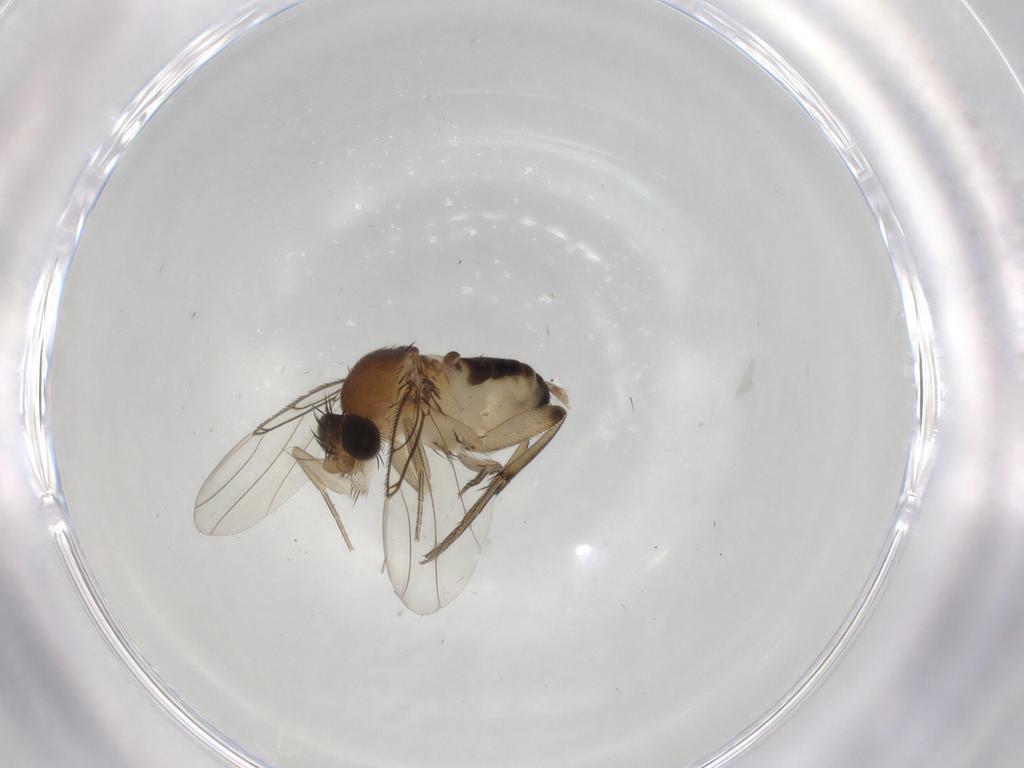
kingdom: Animalia
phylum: Arthropoda
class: Insecta
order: Diptera
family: Phoridae
